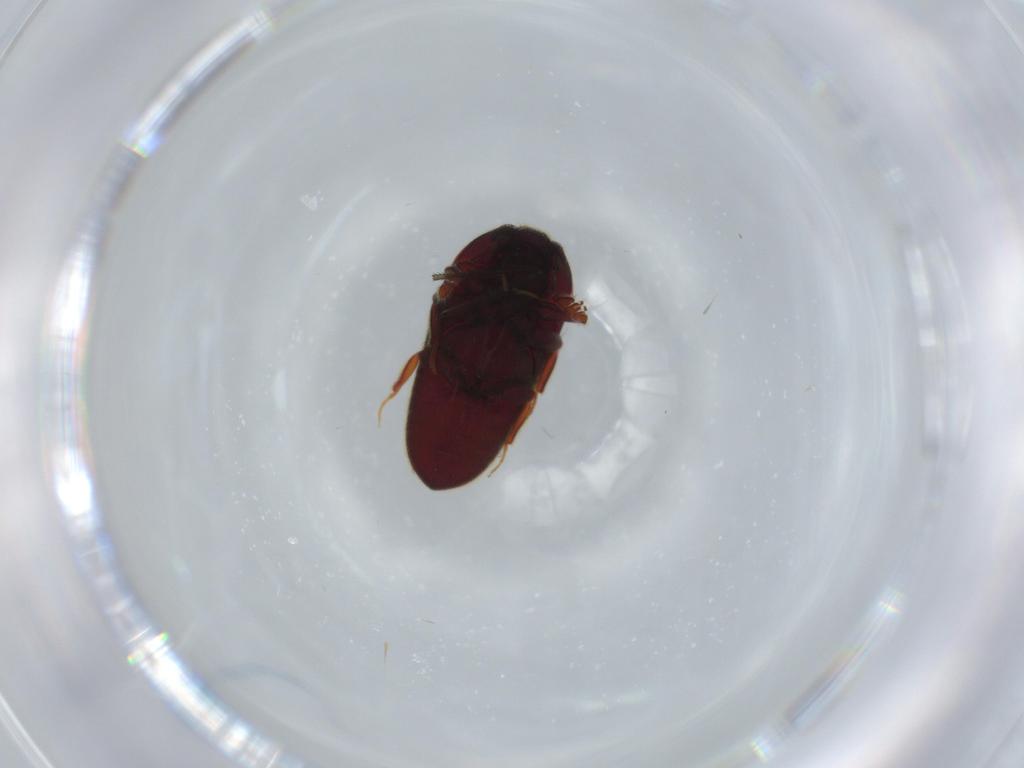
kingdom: Animalia
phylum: Arthropoda
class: Insecta
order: Coleoptera
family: Throscidae
